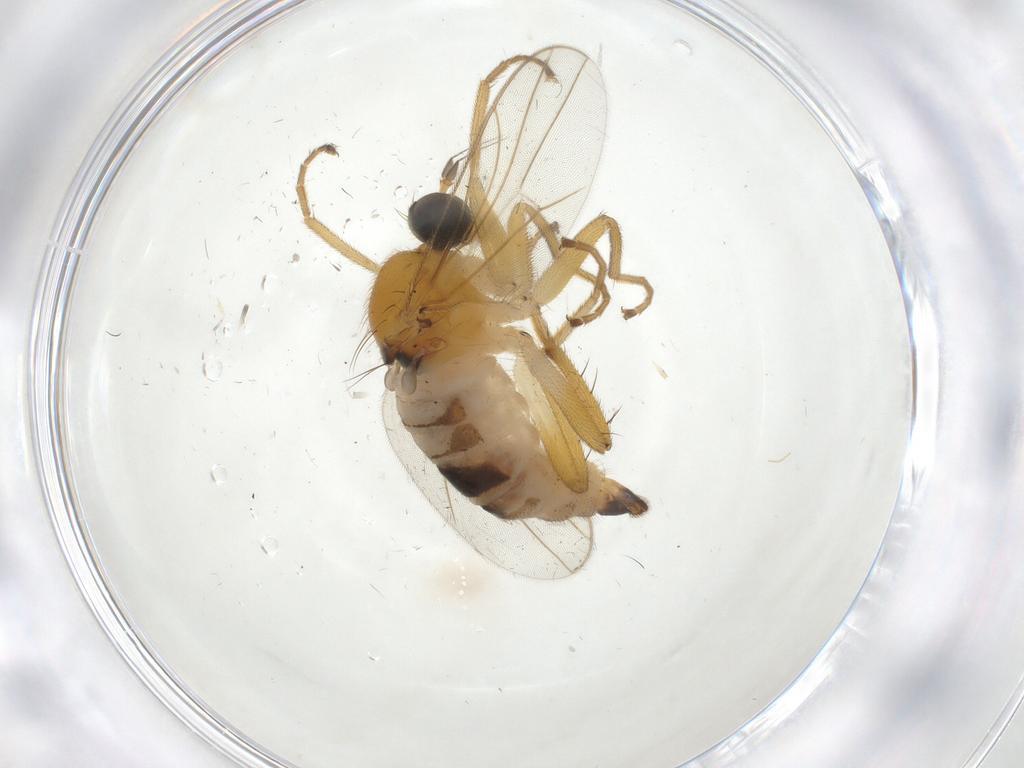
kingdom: Animalia
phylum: Arthropoda
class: Insecta
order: Diptera
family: Hybotidae
